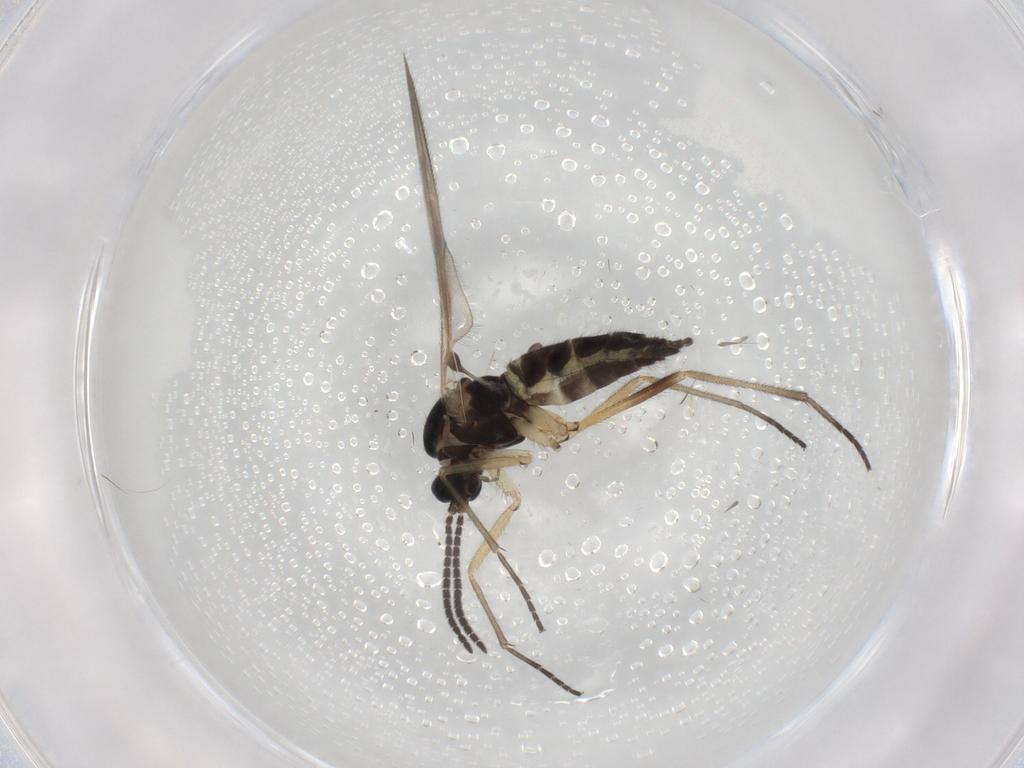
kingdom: Animalia
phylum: Arthropoda
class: Insecta
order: Diptera
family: Sciaridae
